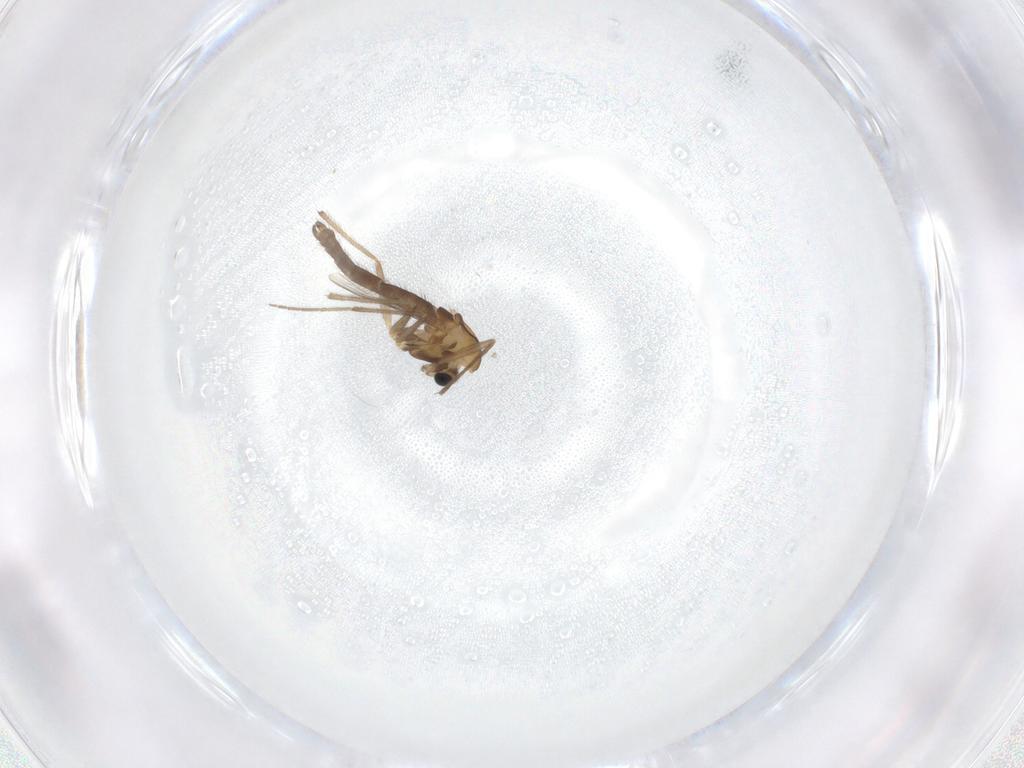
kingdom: Animalia
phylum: Arthropoda
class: Insecta
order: Diptera
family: Chironomidae
